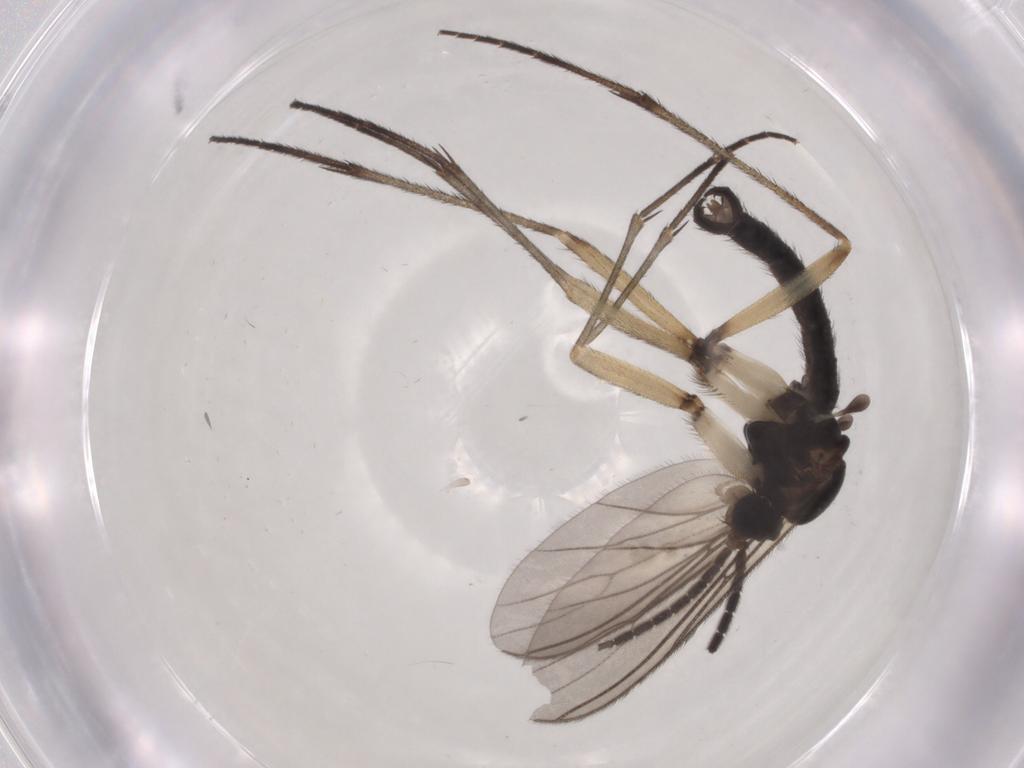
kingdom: Animalia
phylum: Arthropoda
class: Insecta
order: Diptera
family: Sciaridae
